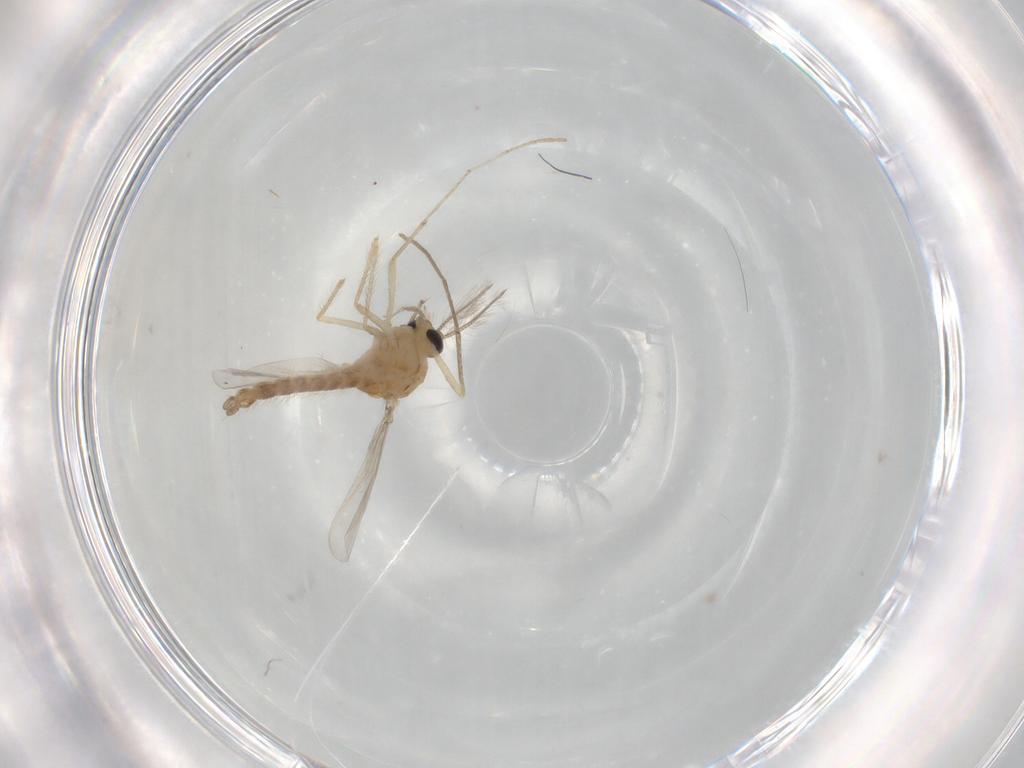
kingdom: Animalia
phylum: Arthropoda
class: Insecta
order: Diptera
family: Chironomidae
